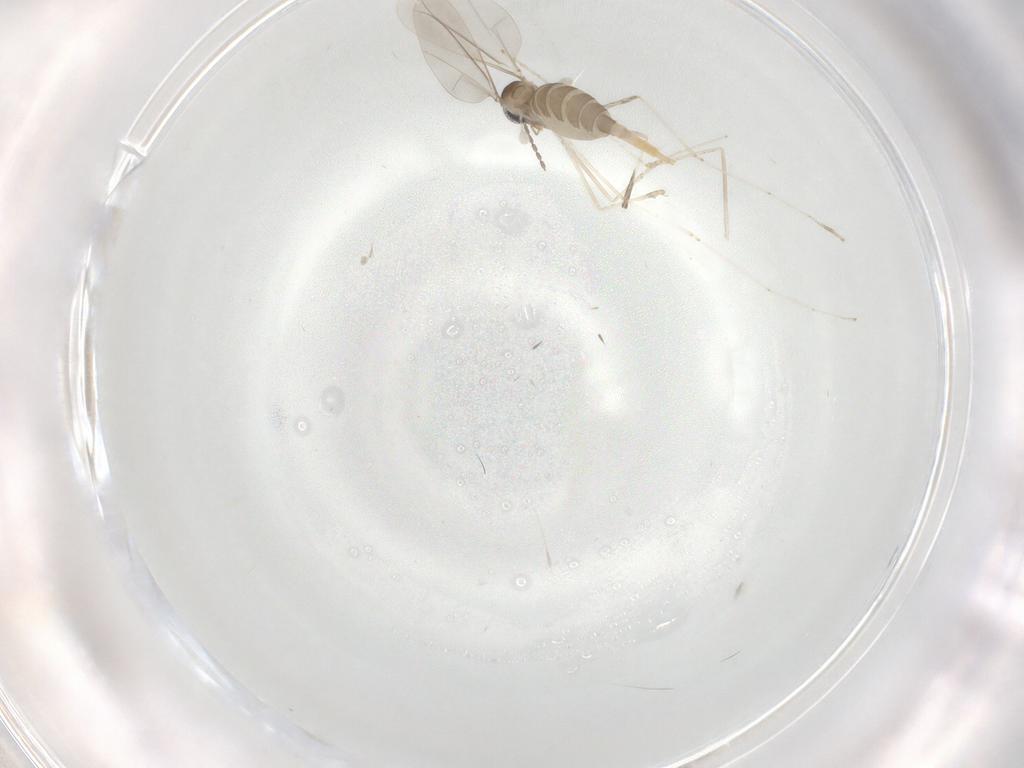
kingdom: Animalia
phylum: Arthropoda
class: Insecta
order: Diptera
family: Cecidomyiidae
